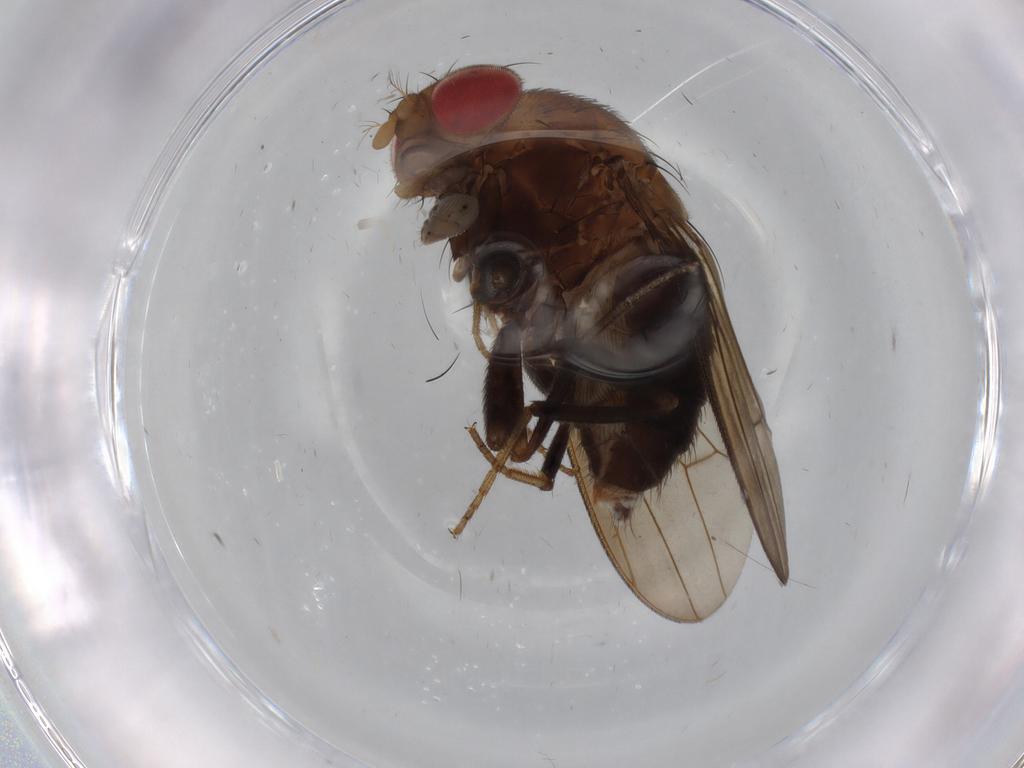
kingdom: Animalia
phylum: Arthropoda
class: Insecta
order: Diptera
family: Drosophilidae
